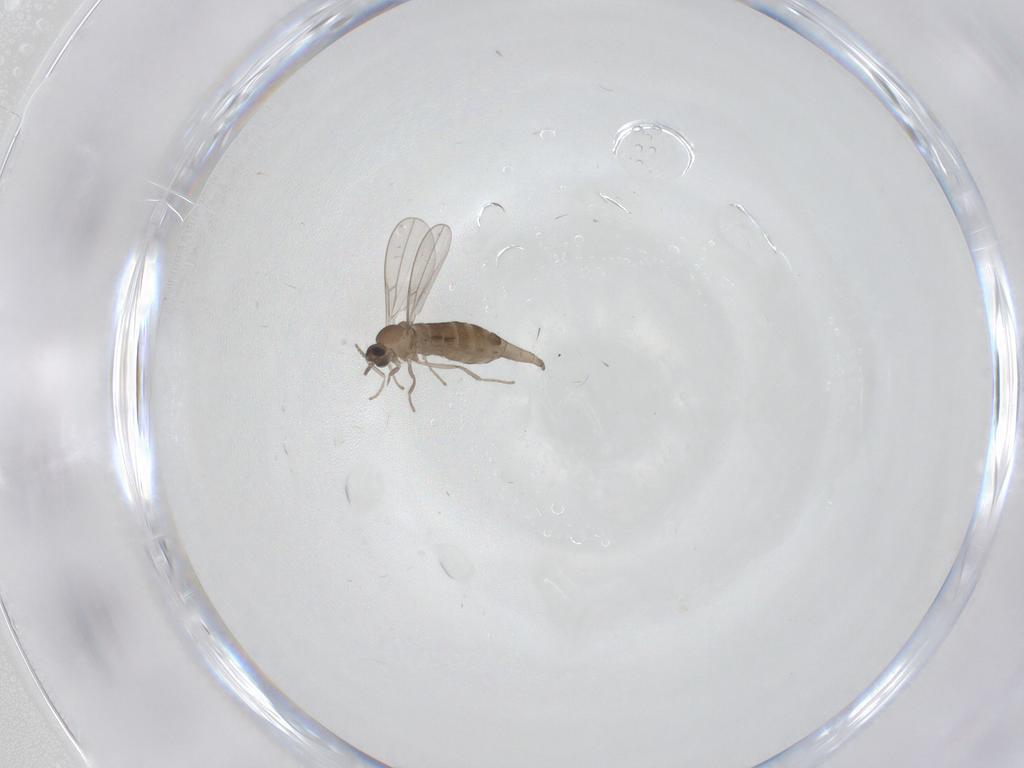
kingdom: Animalia
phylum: Arthropoda
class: Insecta
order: Diptera
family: Cecidomyiidae
